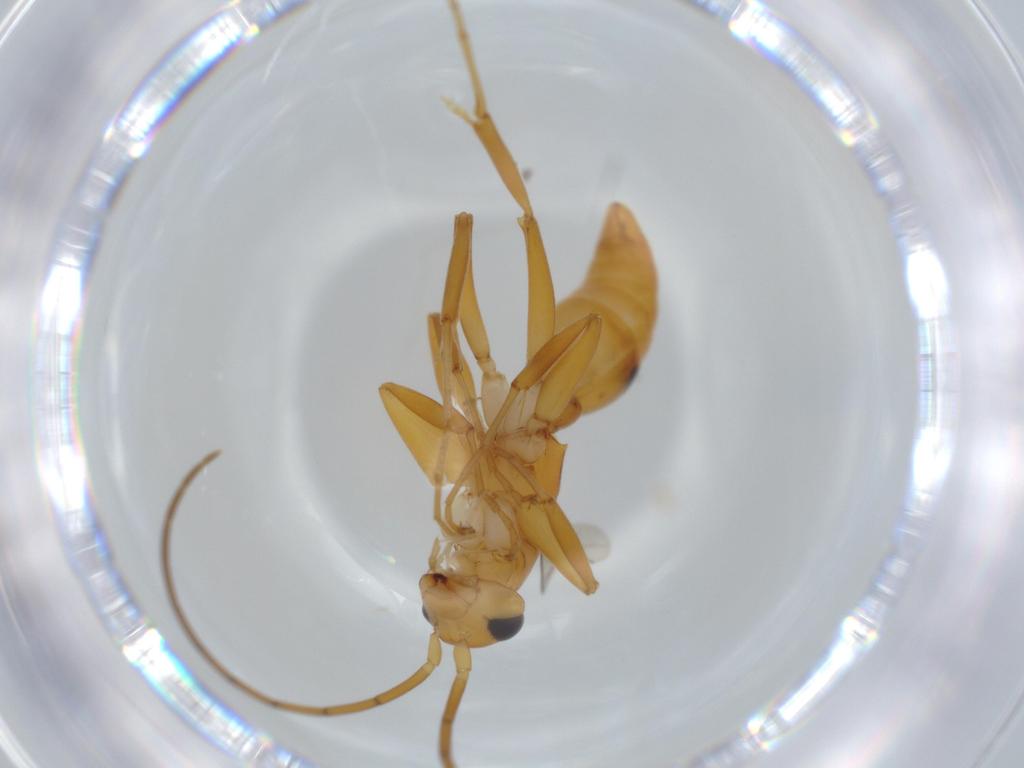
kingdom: Animalia
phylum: Arthropoda
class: Insecta
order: Hymenoptera
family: Rhopalosomatidae
